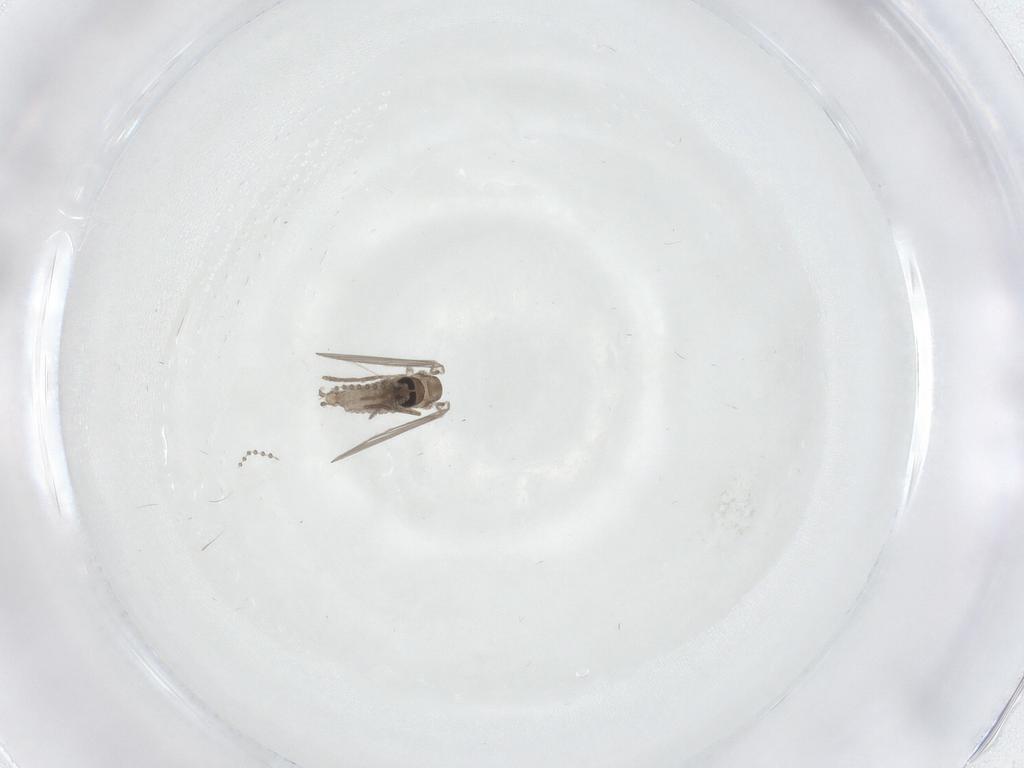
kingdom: Animalia
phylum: Arthropoda
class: Insecta
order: Diptera
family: Psychodidae
